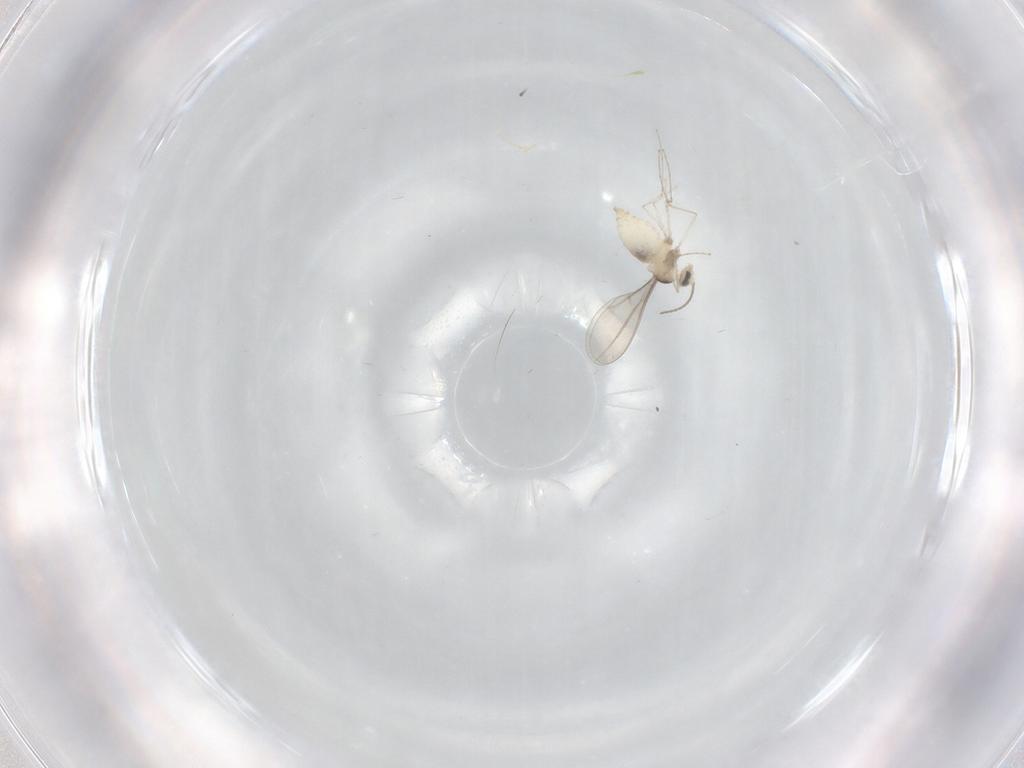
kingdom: Animalia
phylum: Arthropoda
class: Insecta
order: Diptera
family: Cecidomyiidae
